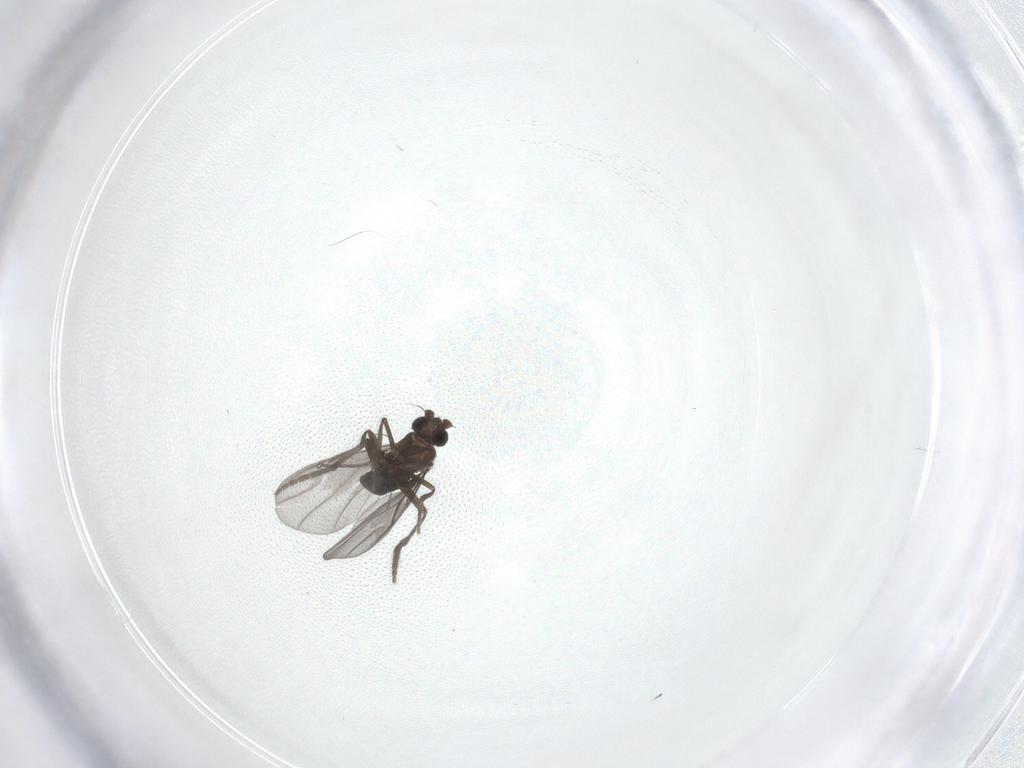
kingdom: Animalia
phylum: Arthropoda
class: Insecta
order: Diptera
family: Phoridae
